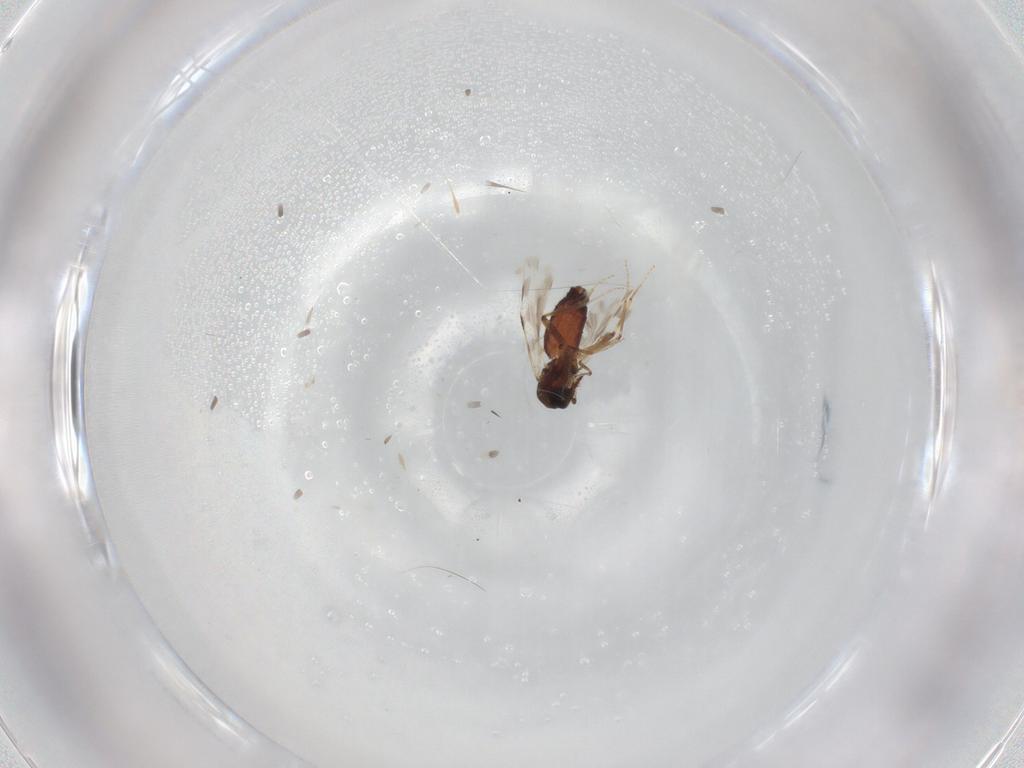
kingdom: Animalia
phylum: Arthropoda
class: Insecta
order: Diptera
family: Ceratopogonidae
